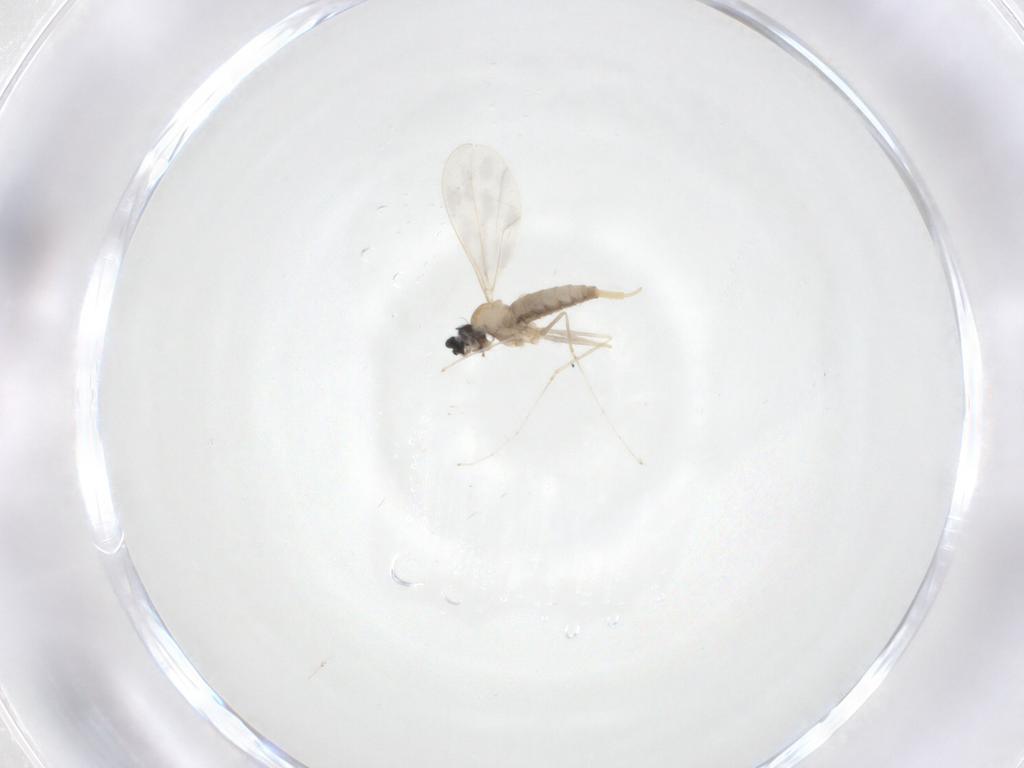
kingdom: Animalia
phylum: Arthropoda
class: Insecta
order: Diptera
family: Cecidomyiidae
